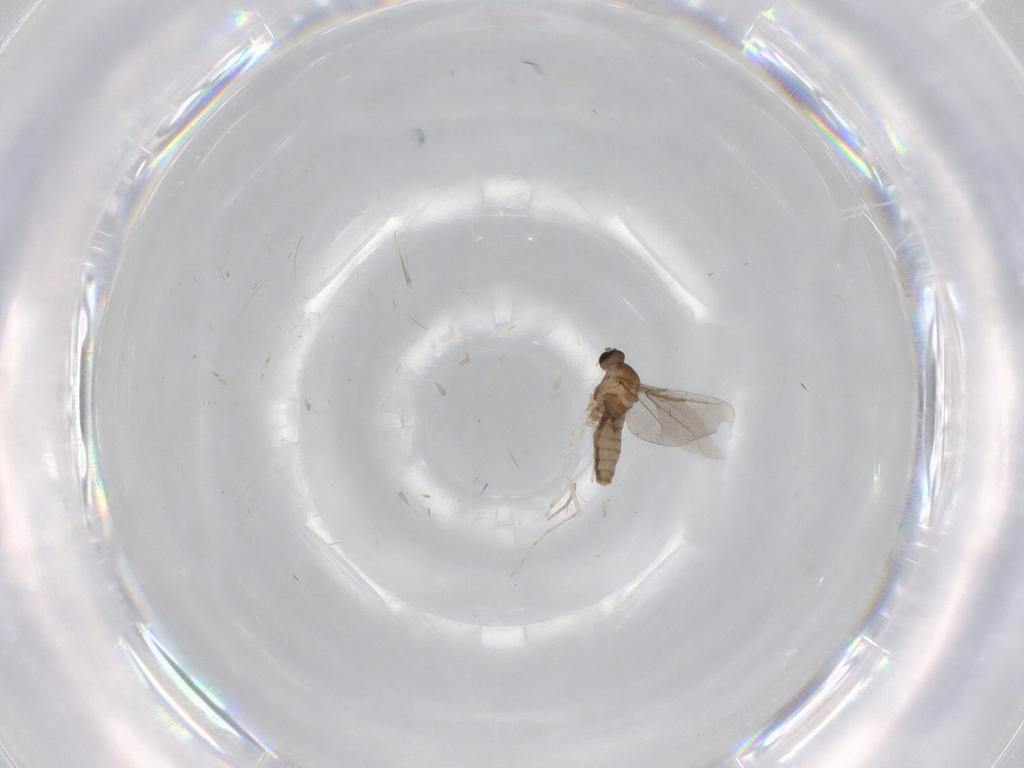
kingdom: Animalia
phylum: Arthropoda
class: Insecta
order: Diptera
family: Cecidomyiidae
